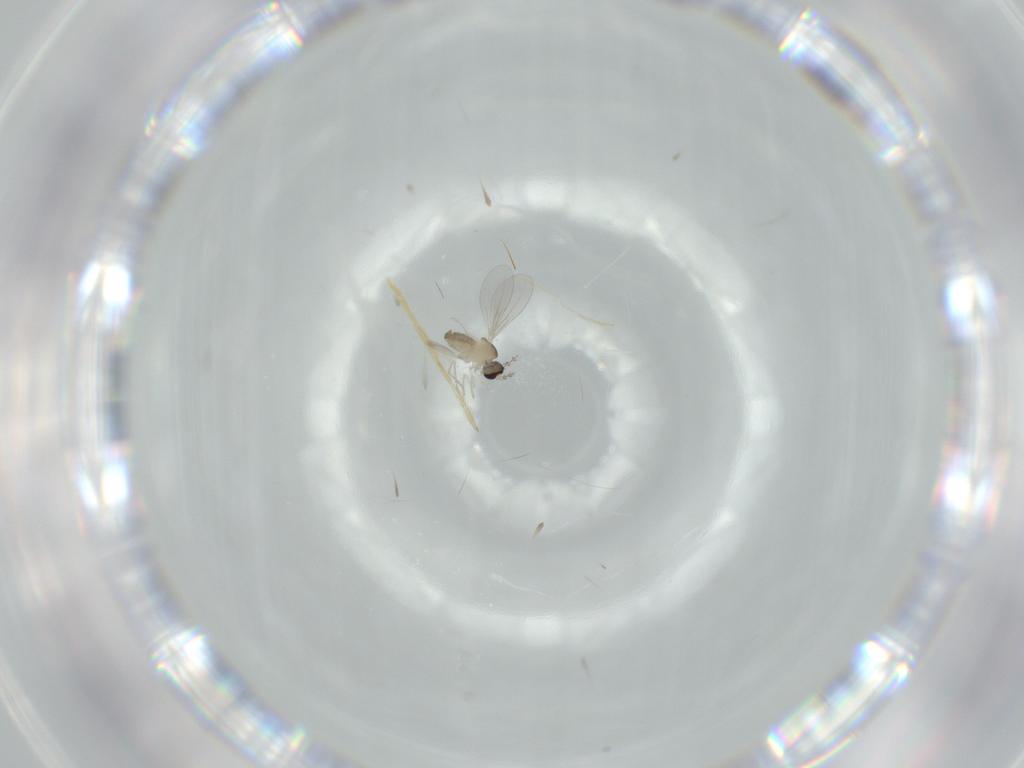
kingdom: Animalia
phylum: Arthropoda
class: Insecta
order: Diptera
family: Cecidomyiidae
